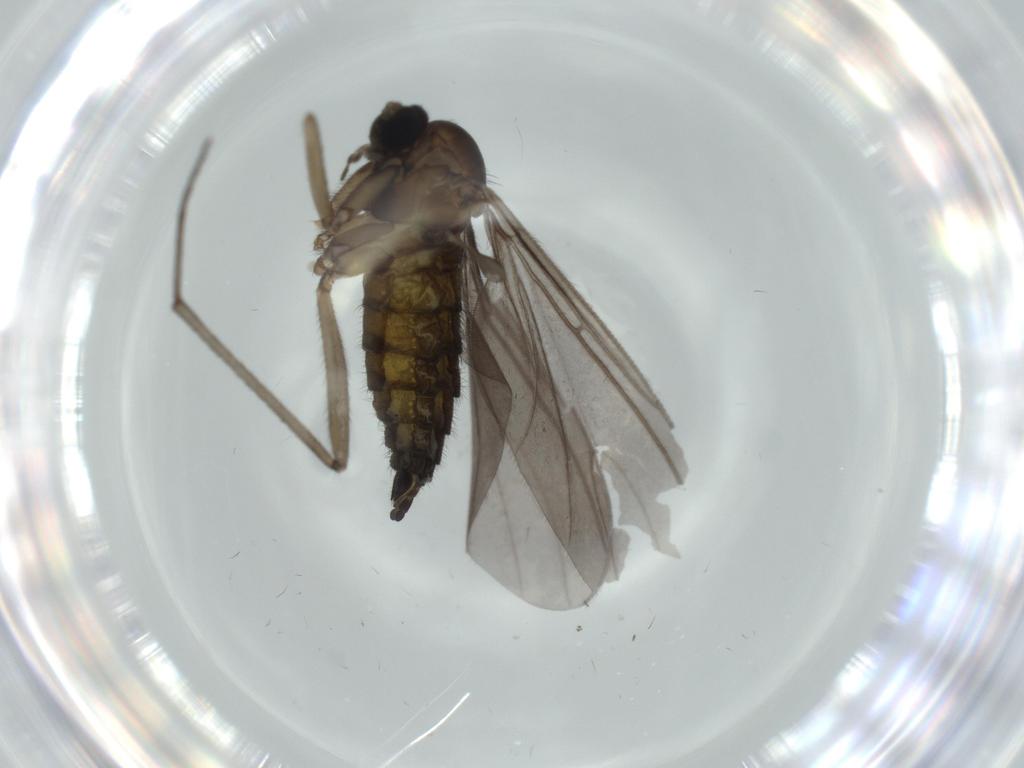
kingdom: Animalia
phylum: Arthropoda
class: Insecta
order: Diptera
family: Sciaridae
